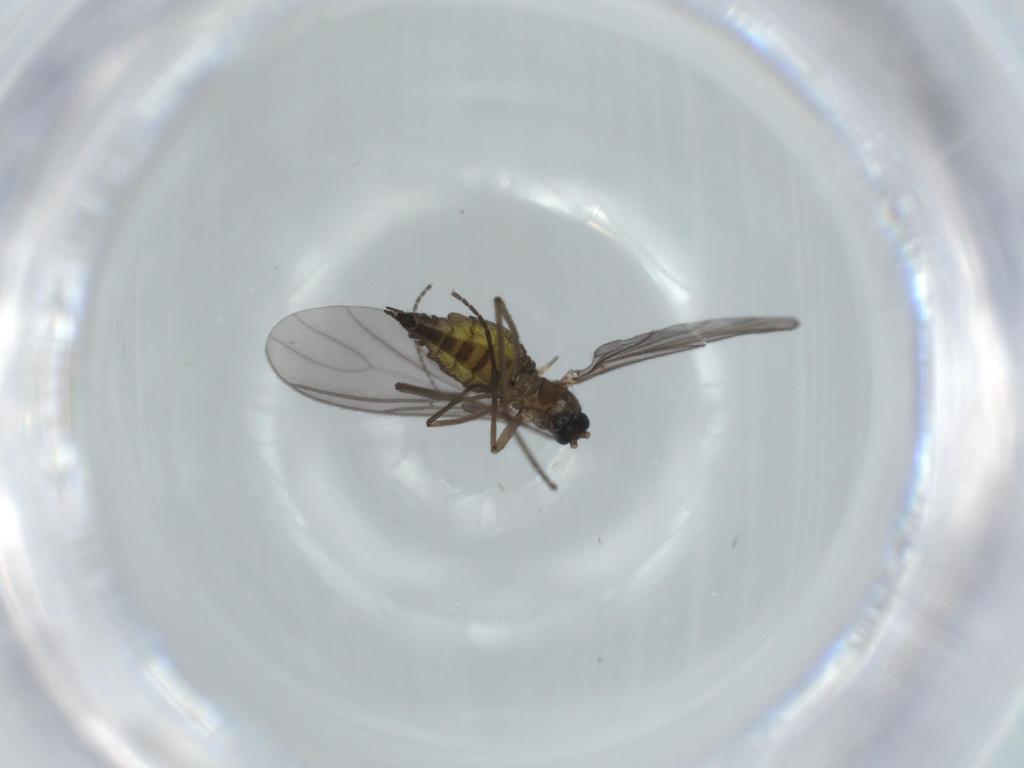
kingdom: Animalia
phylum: Arthropoda
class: Insecta
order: Diptera
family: Sciaridae
